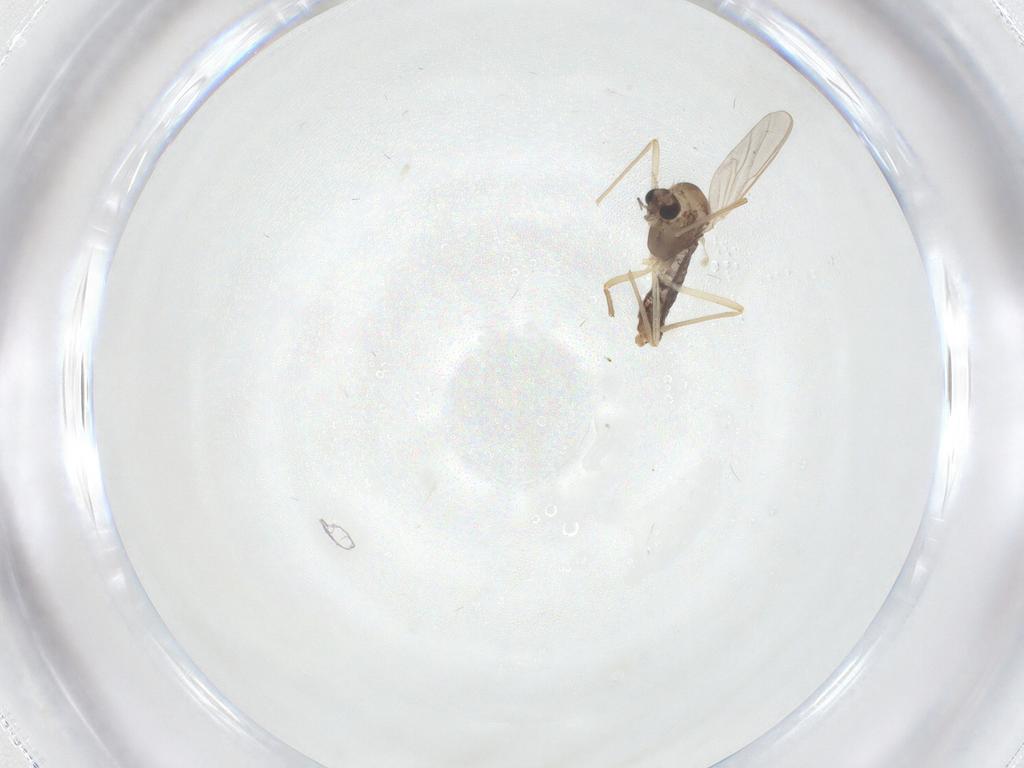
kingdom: Animalia
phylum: Arthropoda
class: Insecta
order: Diptera
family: Chironomidae
